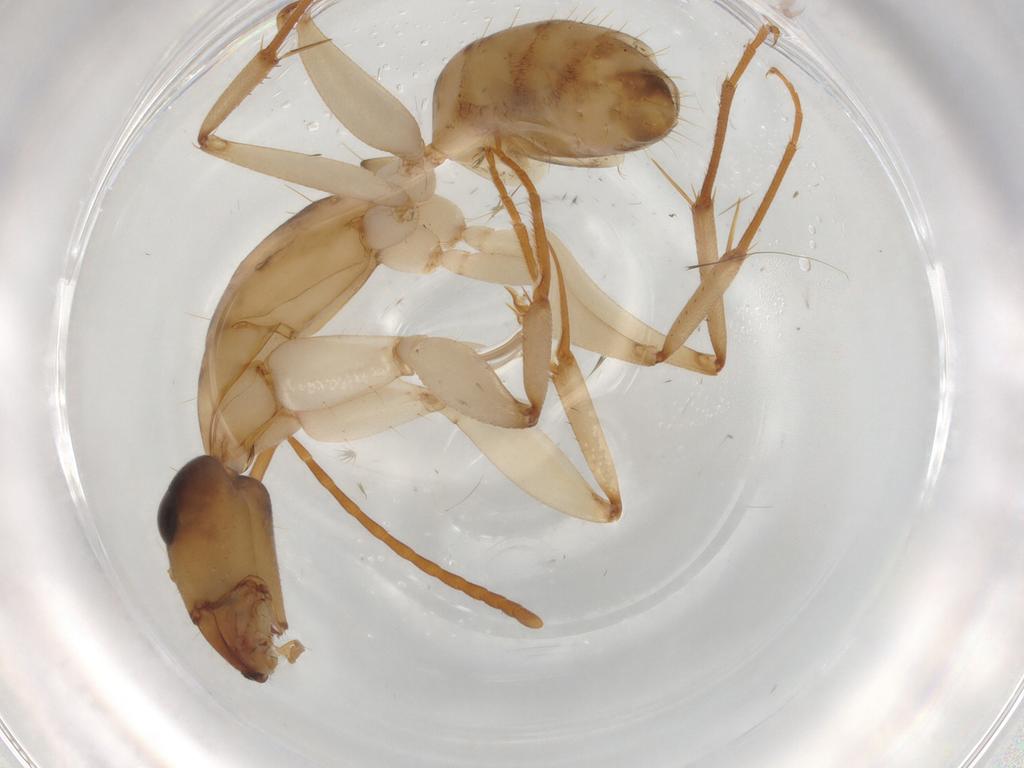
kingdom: Animalia
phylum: Arthropoda
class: Insecta
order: Hymenoptera
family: Formicidae
